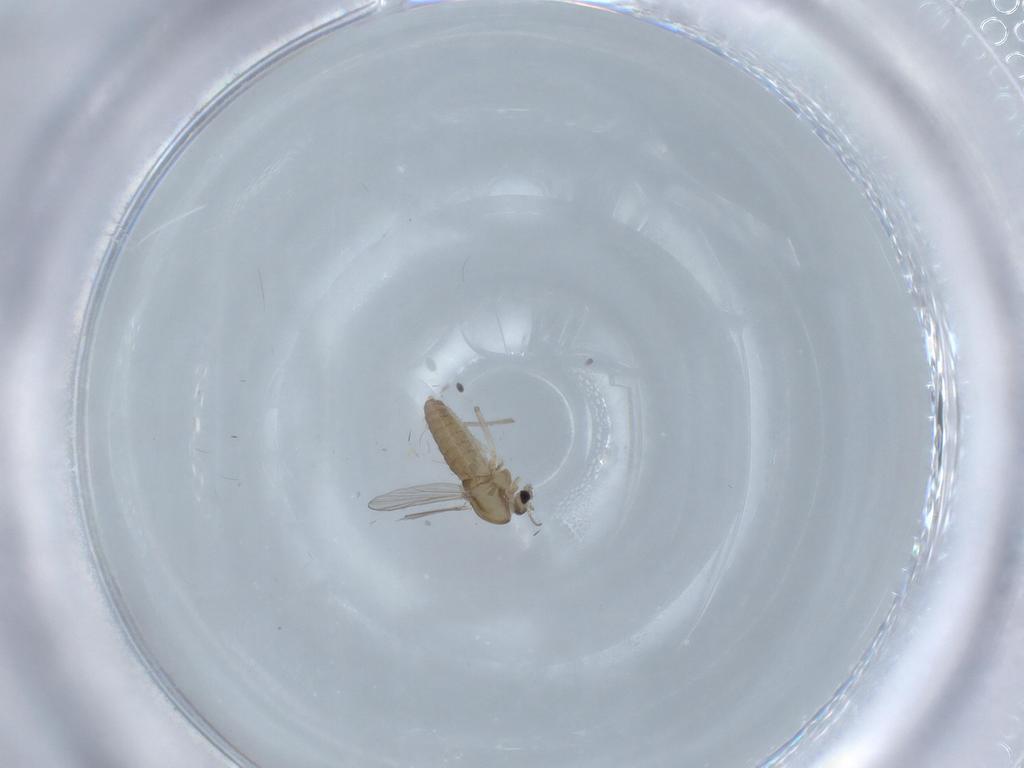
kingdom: Animalia
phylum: Arthropoda
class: Insecta
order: Diptera
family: Chironomidae
